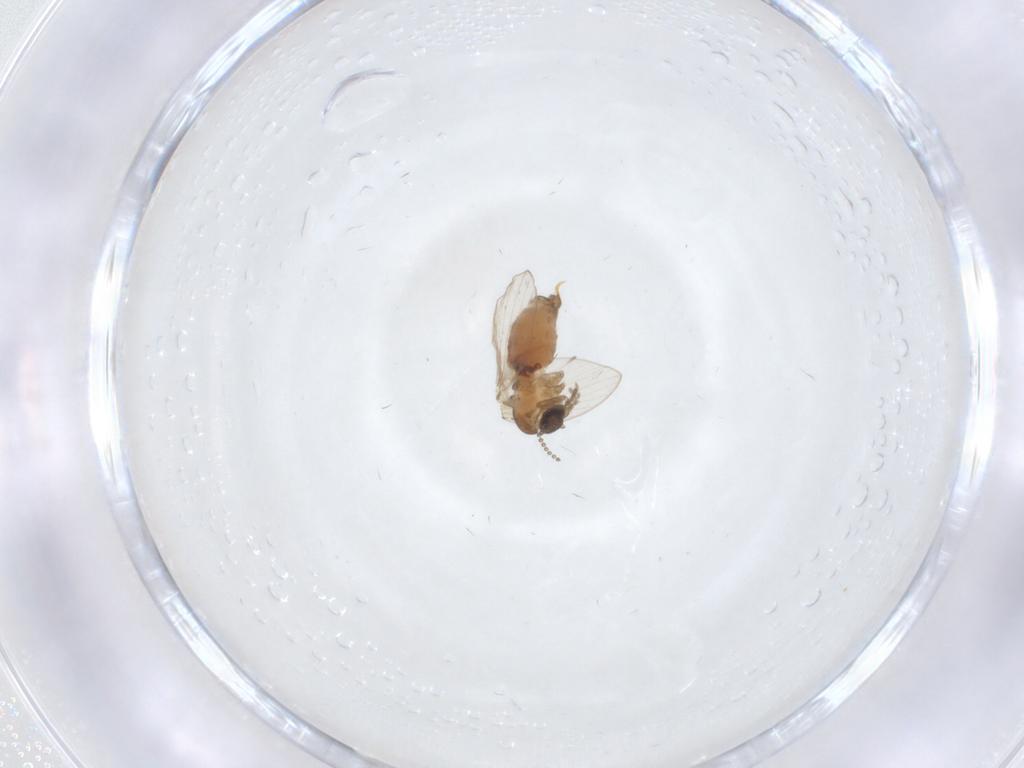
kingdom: Animalia
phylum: Arthropoda
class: Insecta
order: Diptera
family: Psychodidae
